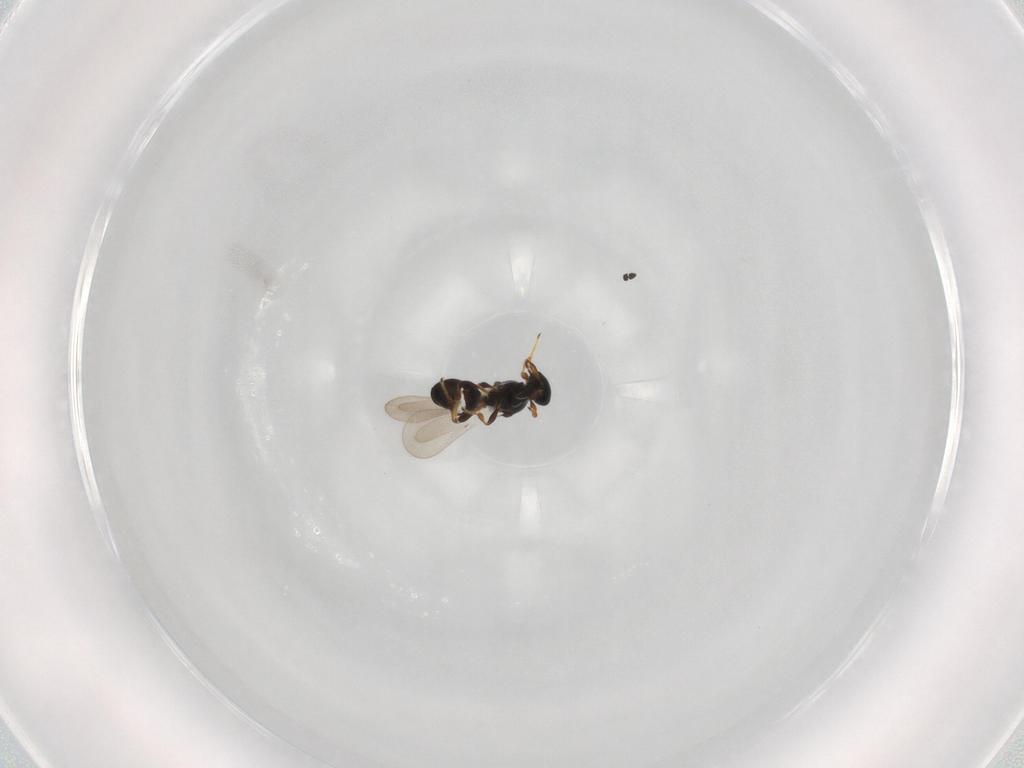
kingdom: Animalia
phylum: Arthropoda
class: Insecta
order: Hymenoptera
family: Platygastridae
